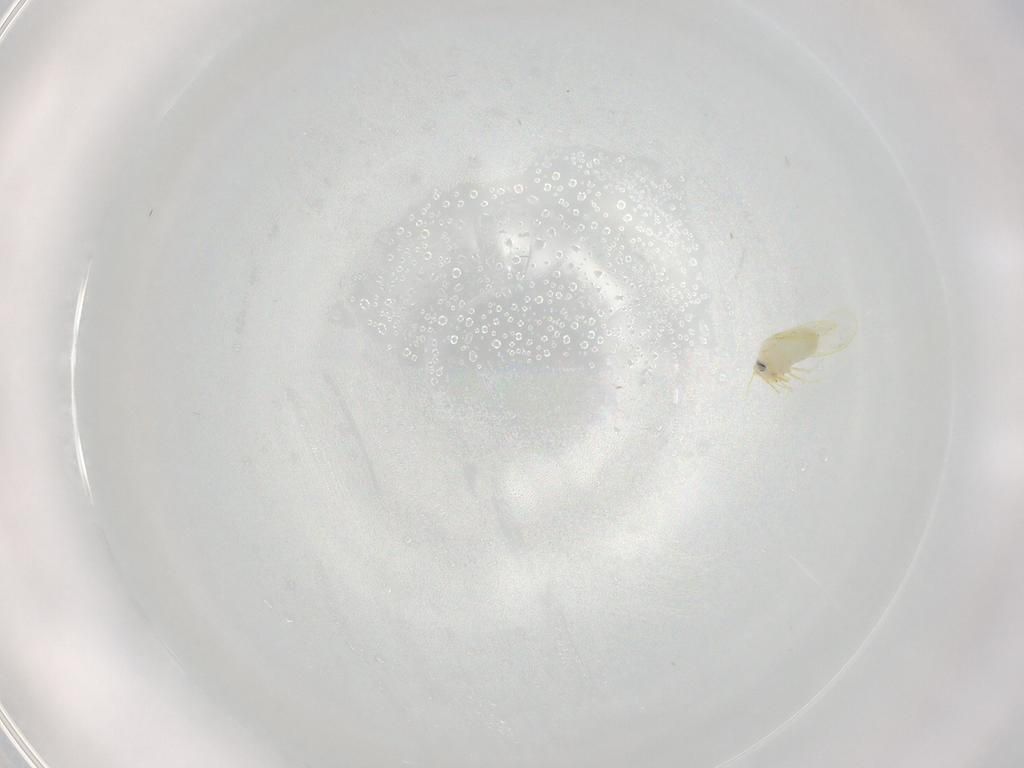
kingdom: Animalia
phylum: Arthropoda
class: Insecta
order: Hemiptera
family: Aleyrodidae
